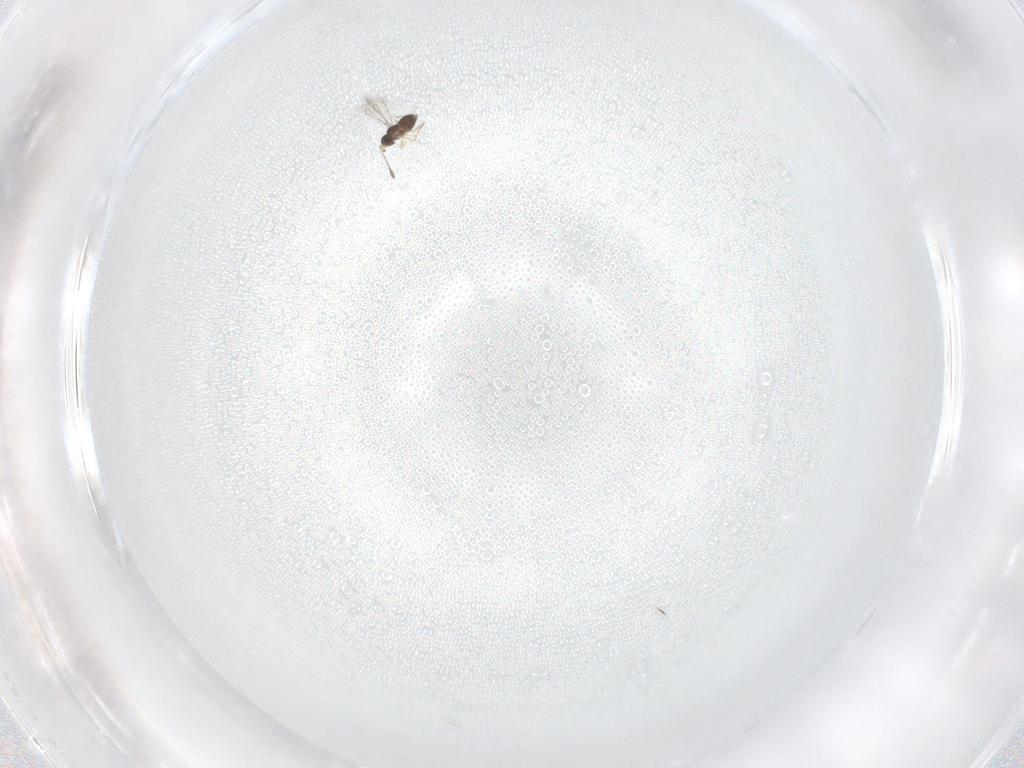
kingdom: Animalia
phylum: Arthropoda
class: Insecta
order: Hymenoptera
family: Mymaridae
